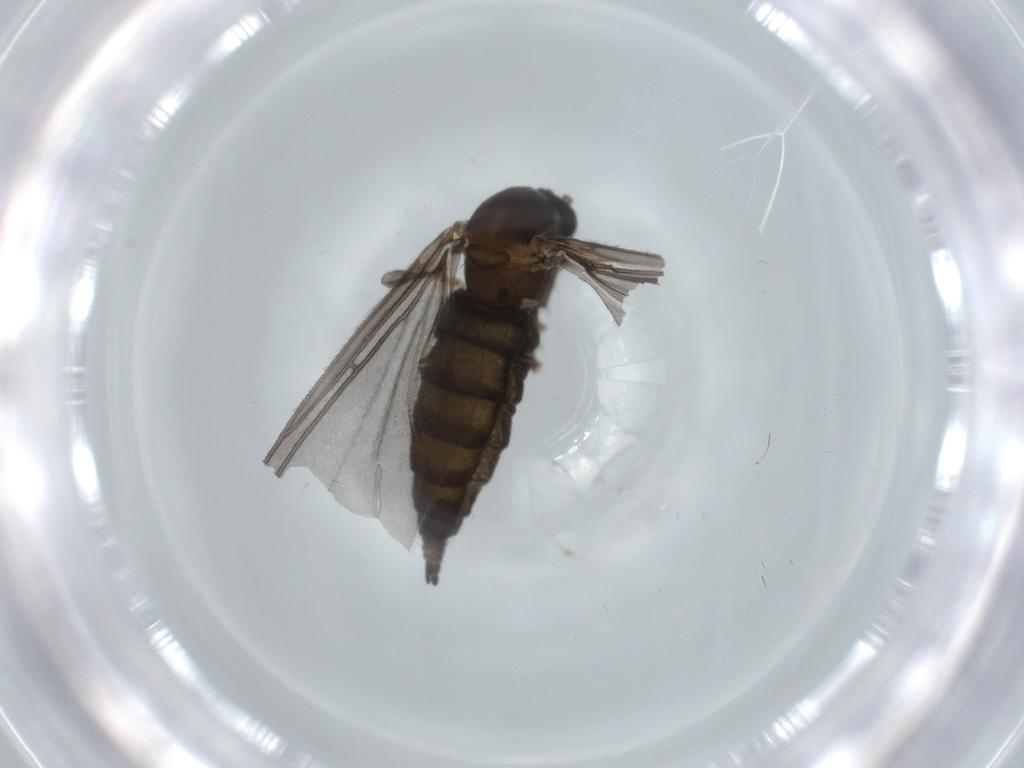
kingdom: Animalia
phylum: Arthropoda
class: Insecta
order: Diptera
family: Cecidomyiidae
